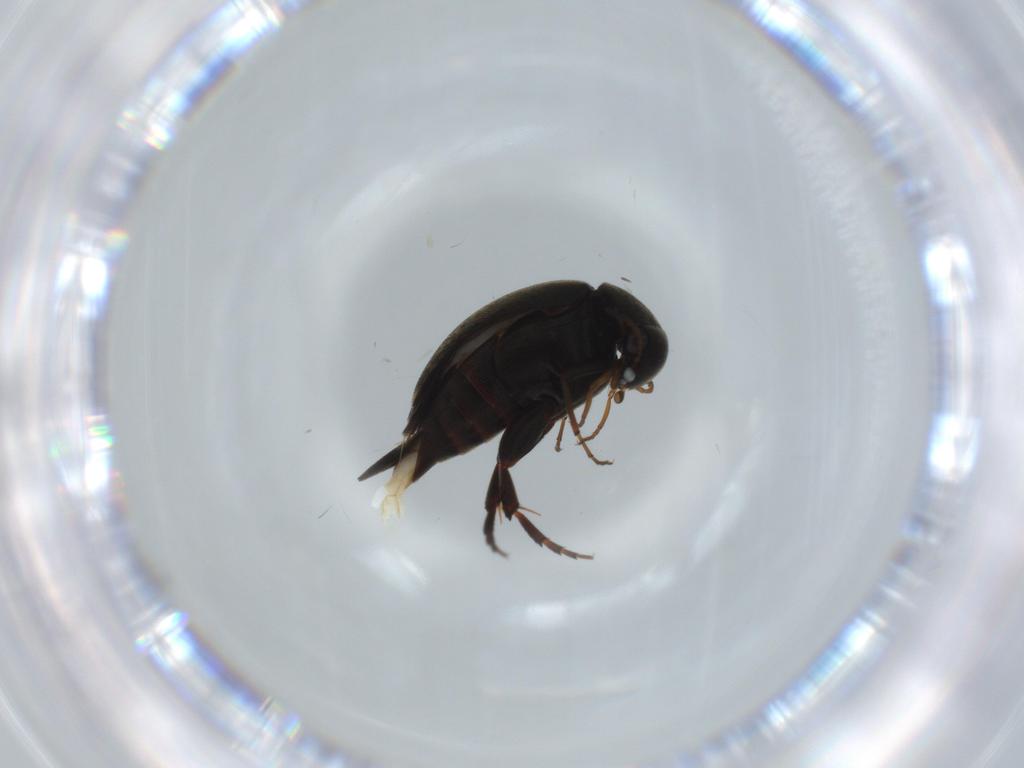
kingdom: Animalia
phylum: Arthropoda
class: Insecta
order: Coleoptera
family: Mordellidae
